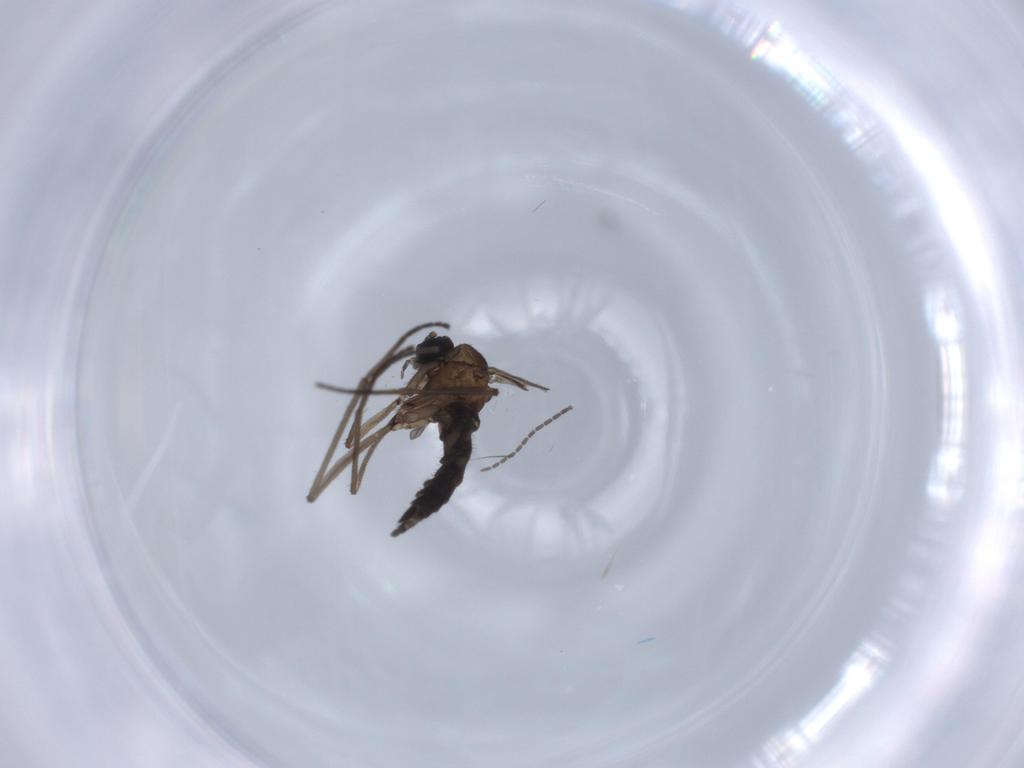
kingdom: Animalia
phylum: Arthropoda
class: Insecta
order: Diptera
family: Sciaridae
